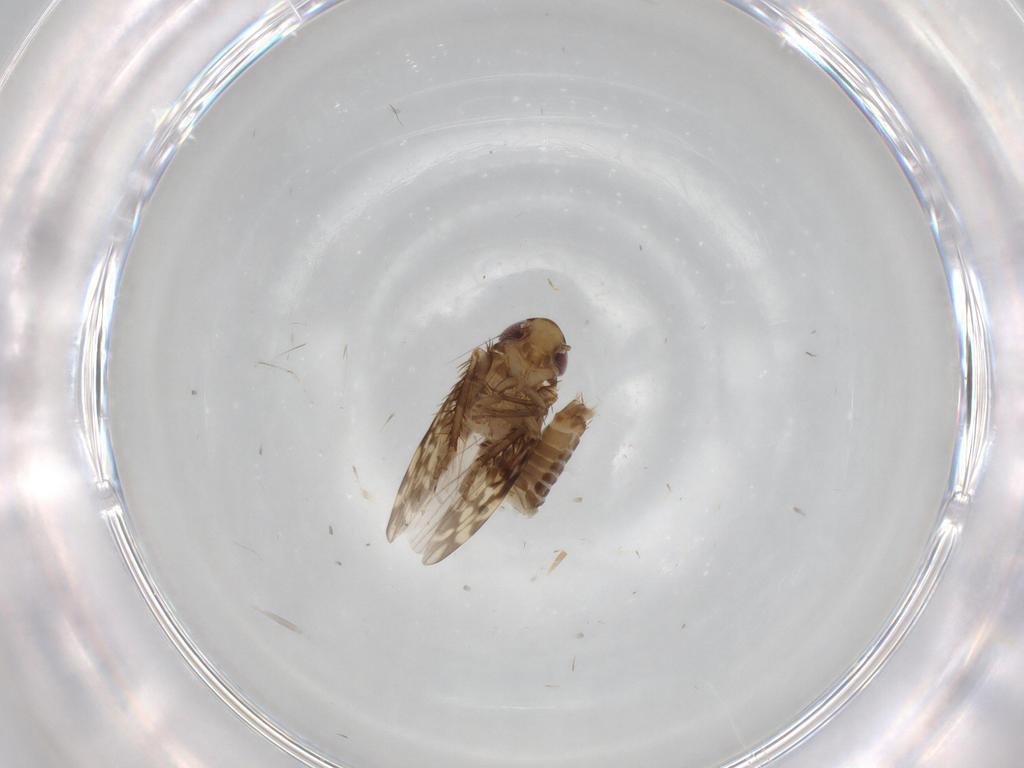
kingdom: Animalia
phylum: Arthropoda
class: Insecta
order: Hemiptera
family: Cicadellidae
